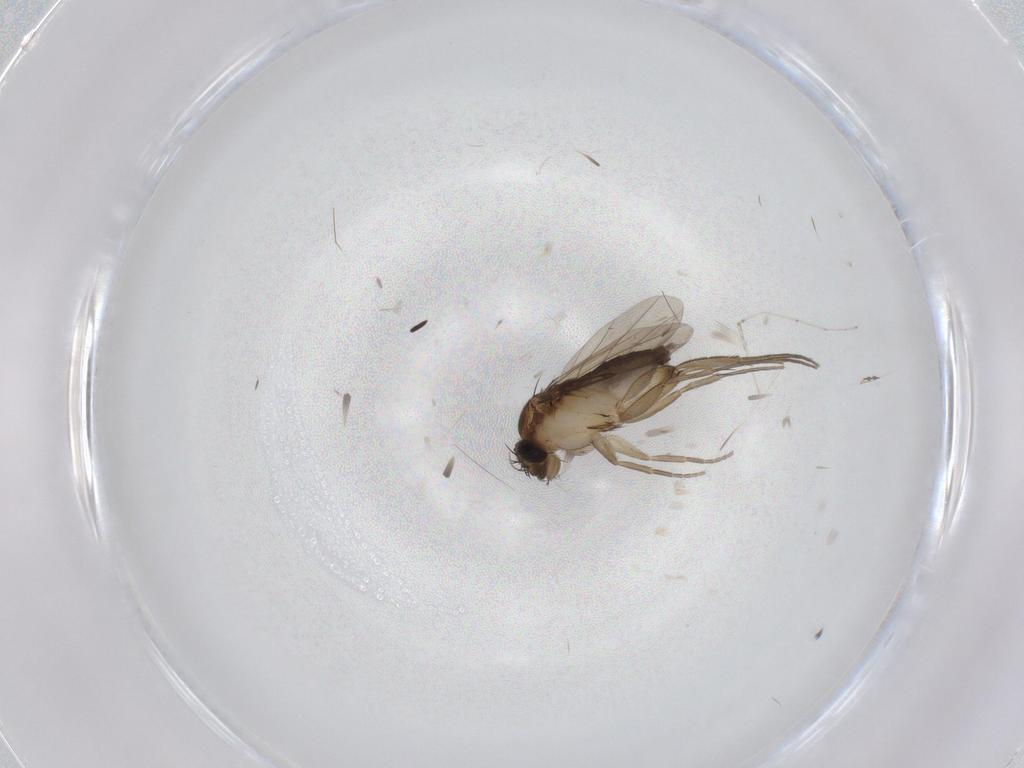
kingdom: Animalia
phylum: Arthropoda
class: Insecta
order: Diptera
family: Phoridae
